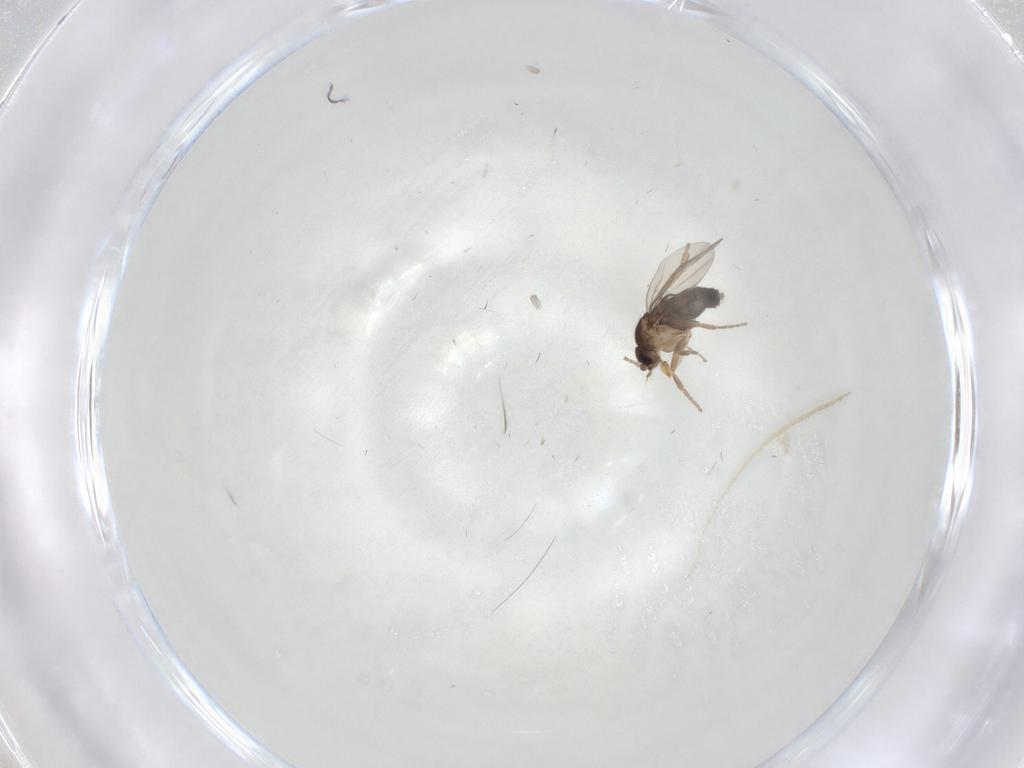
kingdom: Animalia
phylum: Arthropoda
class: Insecta
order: Diptera
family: Phoridae
